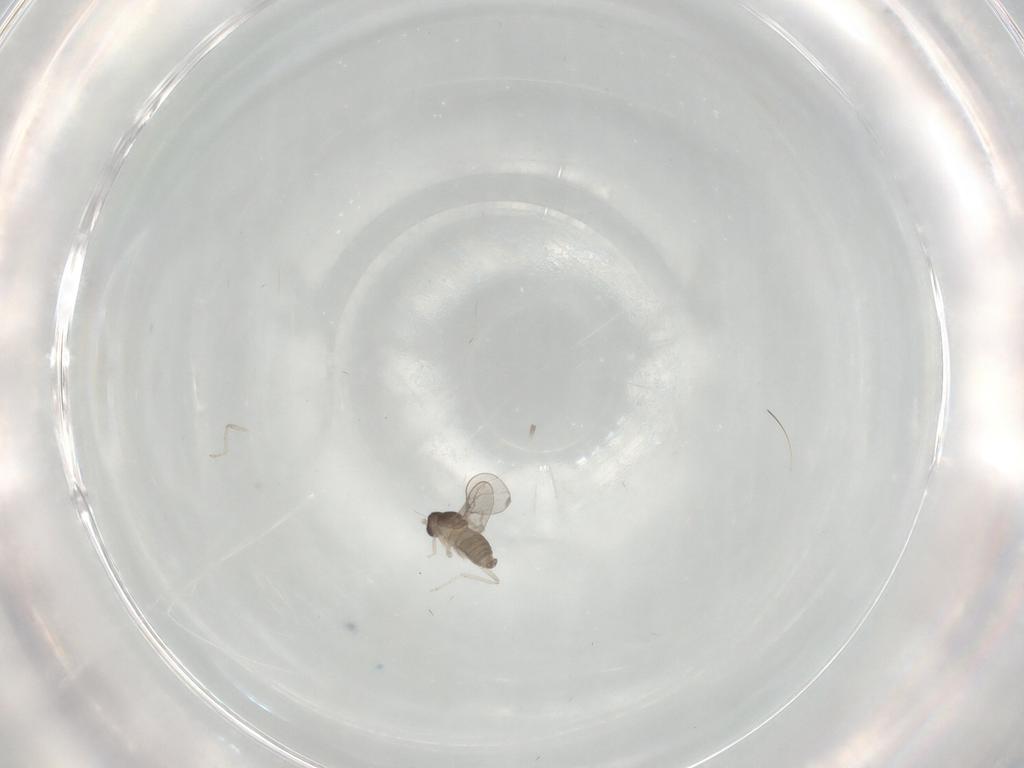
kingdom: Animalia
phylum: Arthropoda
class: Insecta
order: Diptera
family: Cecidomyiidae
